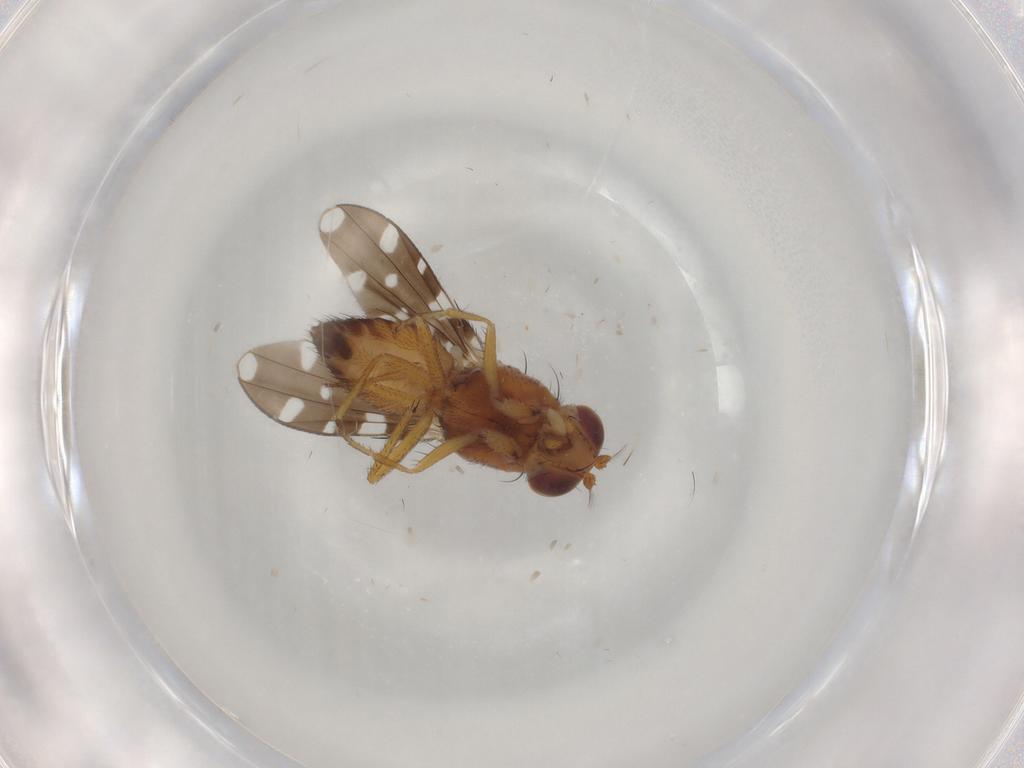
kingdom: Animalia
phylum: Arthropoda
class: Insecta
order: Diptera
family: Ephydridae
